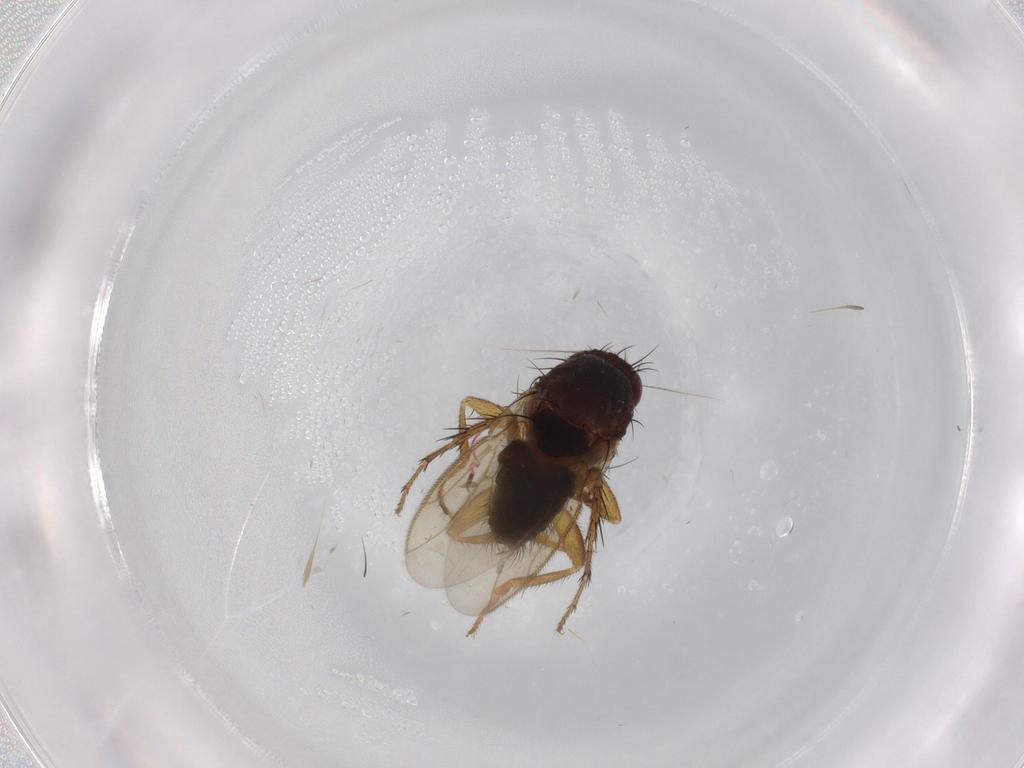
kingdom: Animalia
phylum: Arthropoda
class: Insecta
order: Diptera
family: Sphaeroceridae
